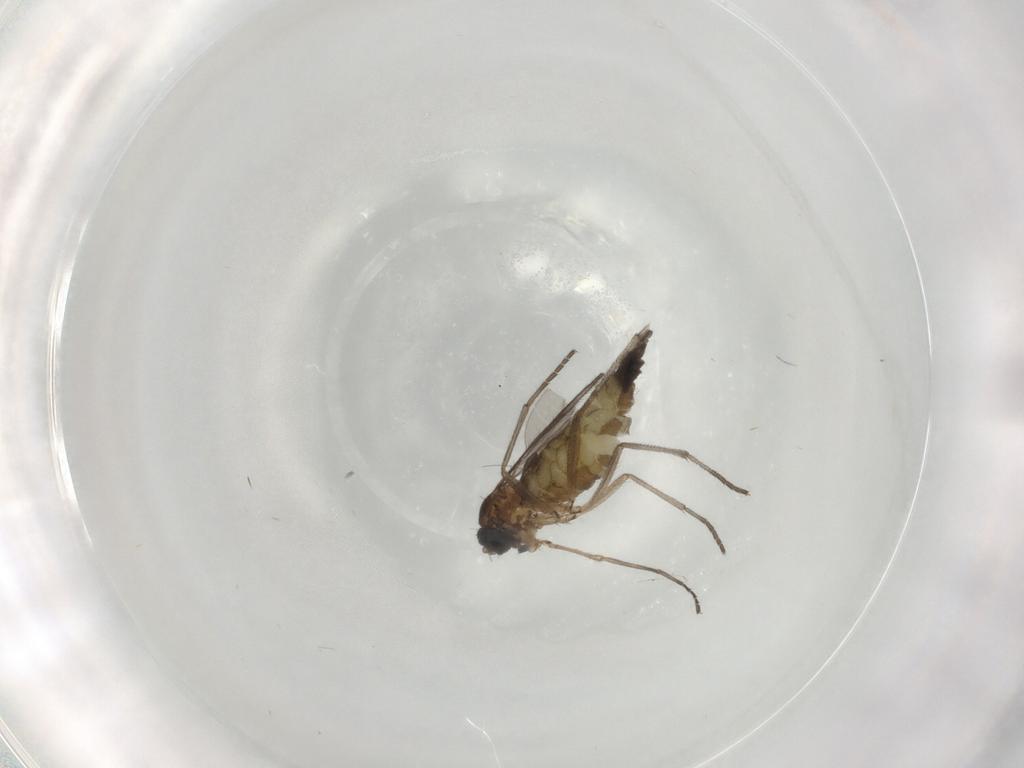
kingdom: Animalia
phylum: Arthropoda
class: Insecta
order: Diptera
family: Sciaridae
